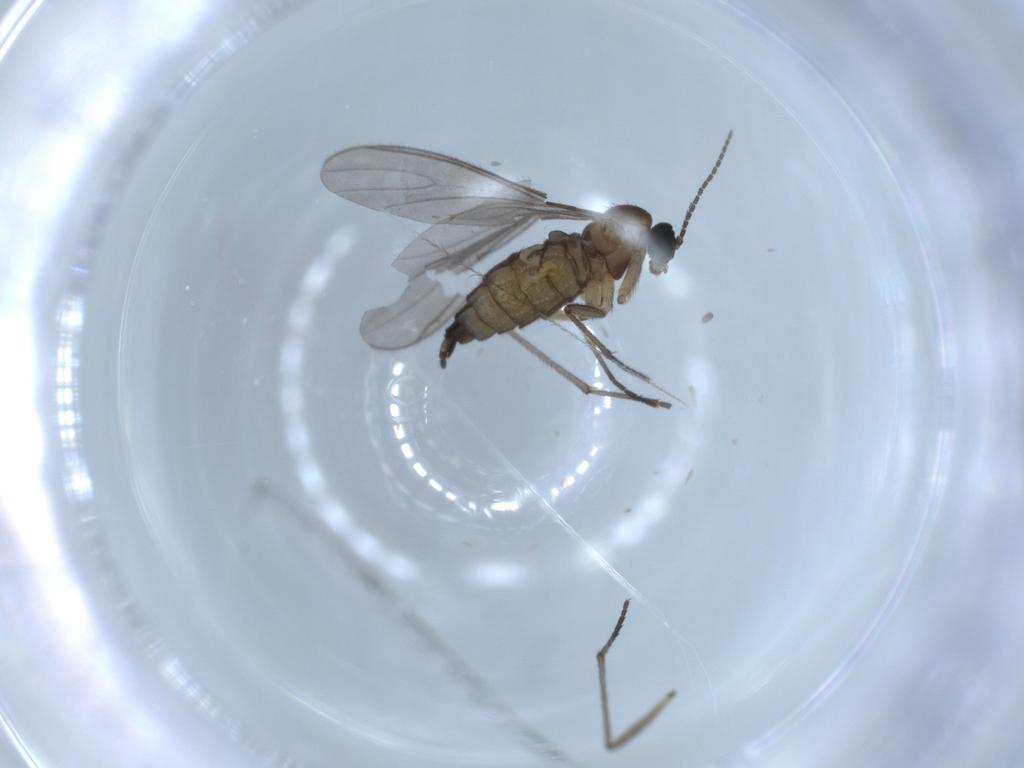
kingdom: Animalia
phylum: Arthropoda
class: Insecta
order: Diptera
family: Sciaridae
